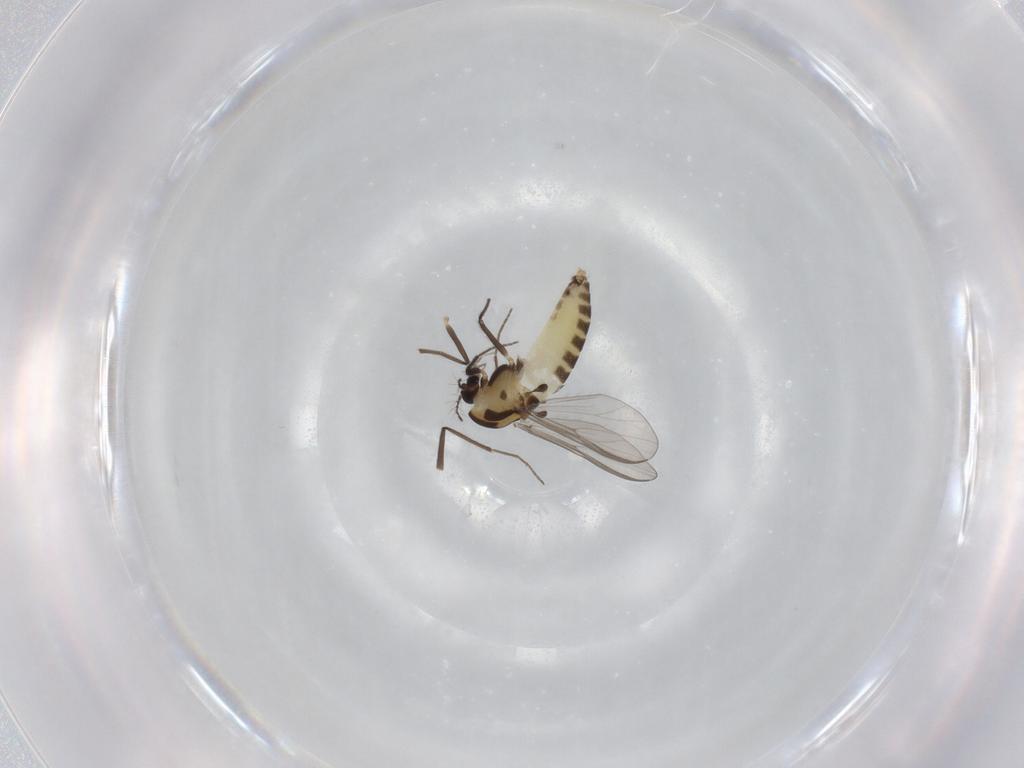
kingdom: Animalia
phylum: Arthropoda
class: Insecta
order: Diptera
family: Chironomidae
